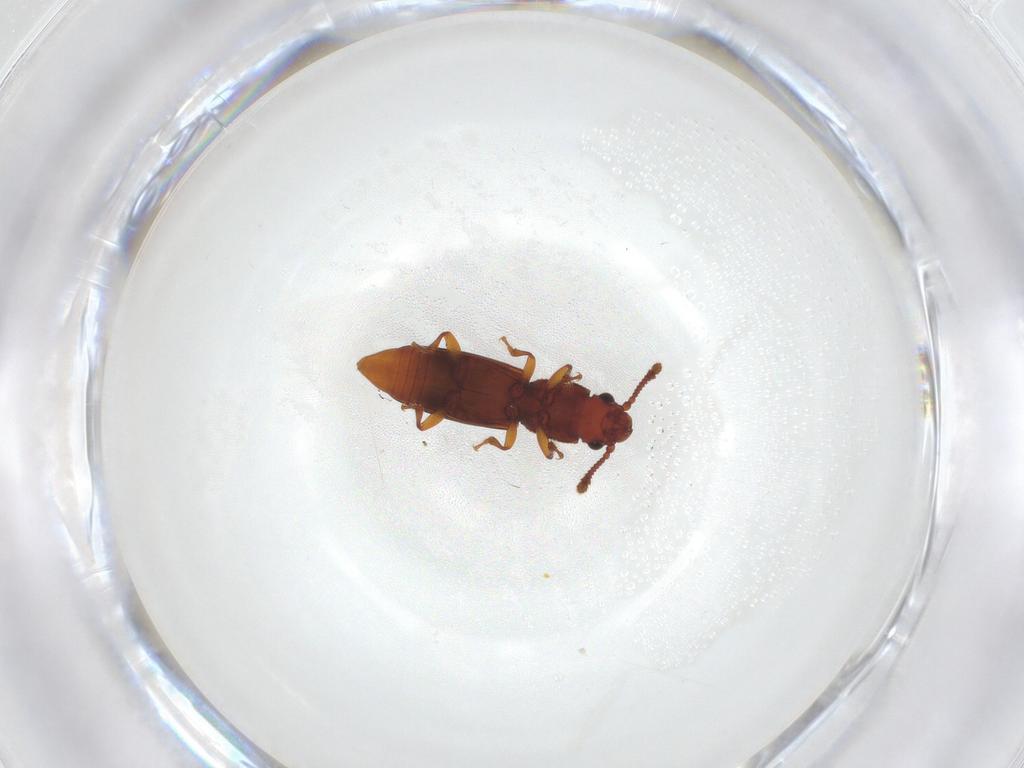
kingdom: Animalia
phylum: Arthropoda
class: Insecta
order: Coleoptera
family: Monotomidae
